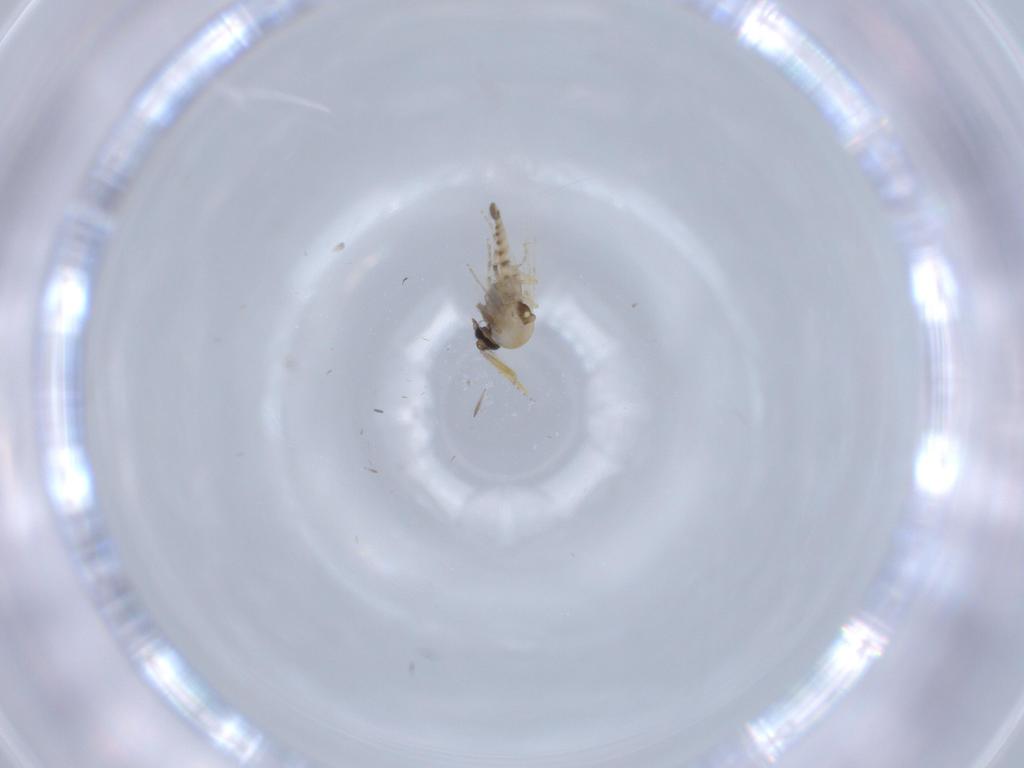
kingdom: Animalia
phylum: Arthropoda
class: Insecta
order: Diptera
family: Ceratopogonidae
